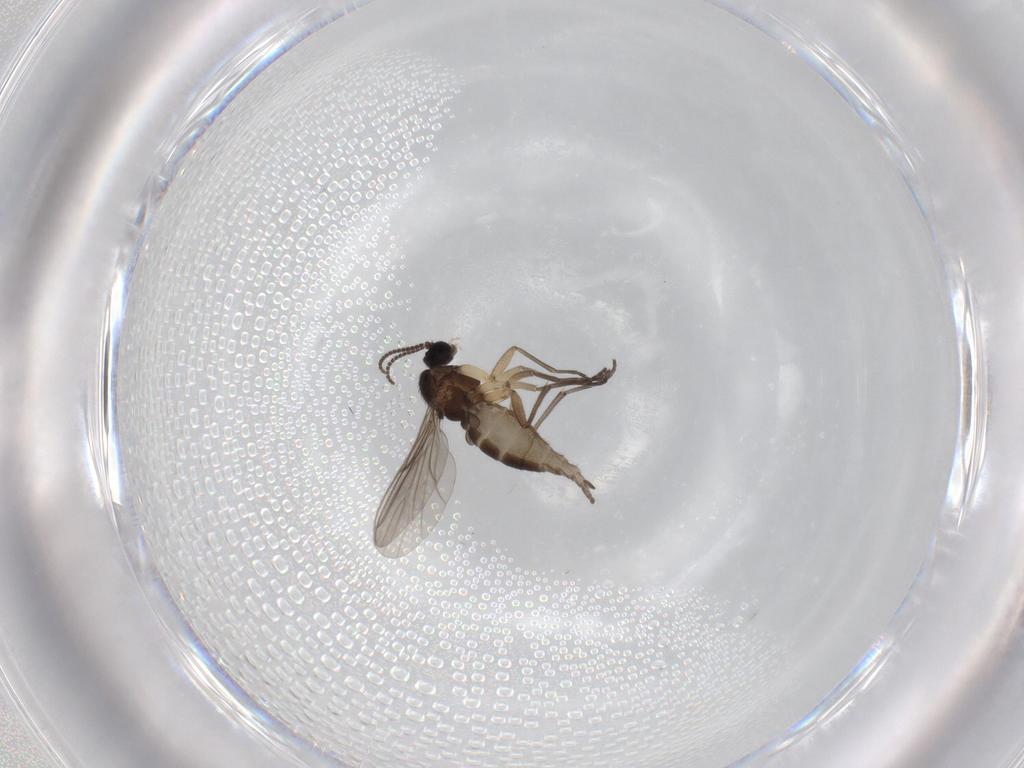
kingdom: Animalia
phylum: Arthropoda
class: Insecta
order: Diptera
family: Sciaridae
